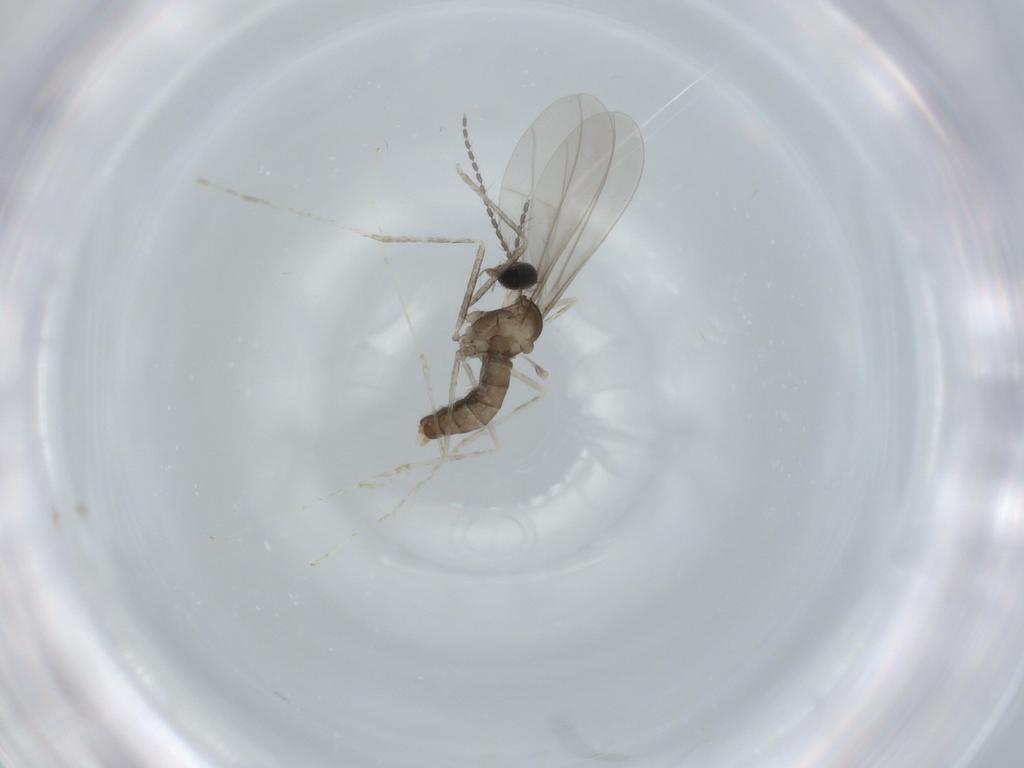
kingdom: Animalia
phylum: Arthropoda
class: Insecta
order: Diptera
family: Cecidomyiidae
